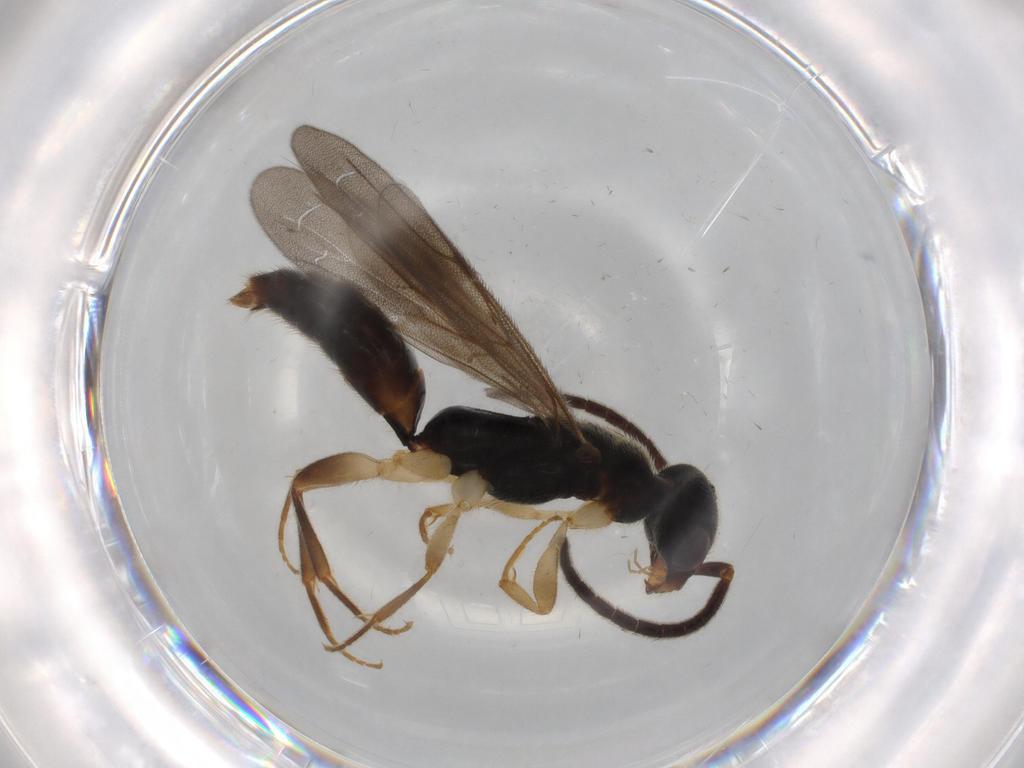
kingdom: Animalia
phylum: Arthropoda
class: Insecta
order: Hymenoptera
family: Bethylidae
